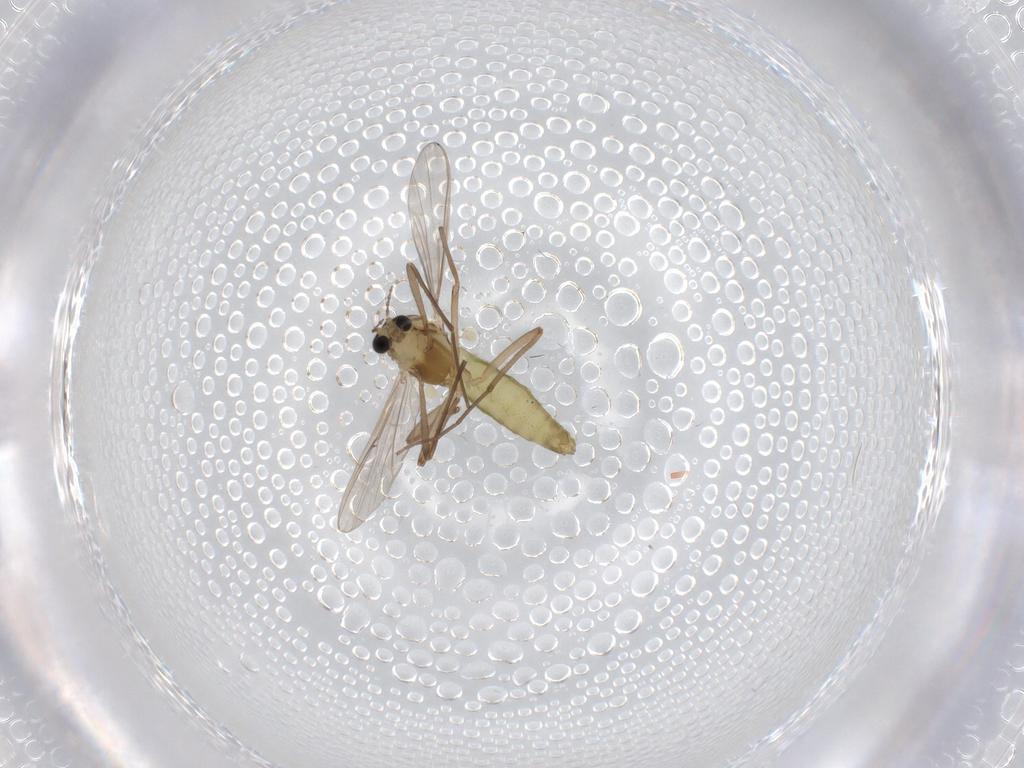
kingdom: Animalia
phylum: Arthropoda
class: Insecta
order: Diptera
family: Chironomidae
